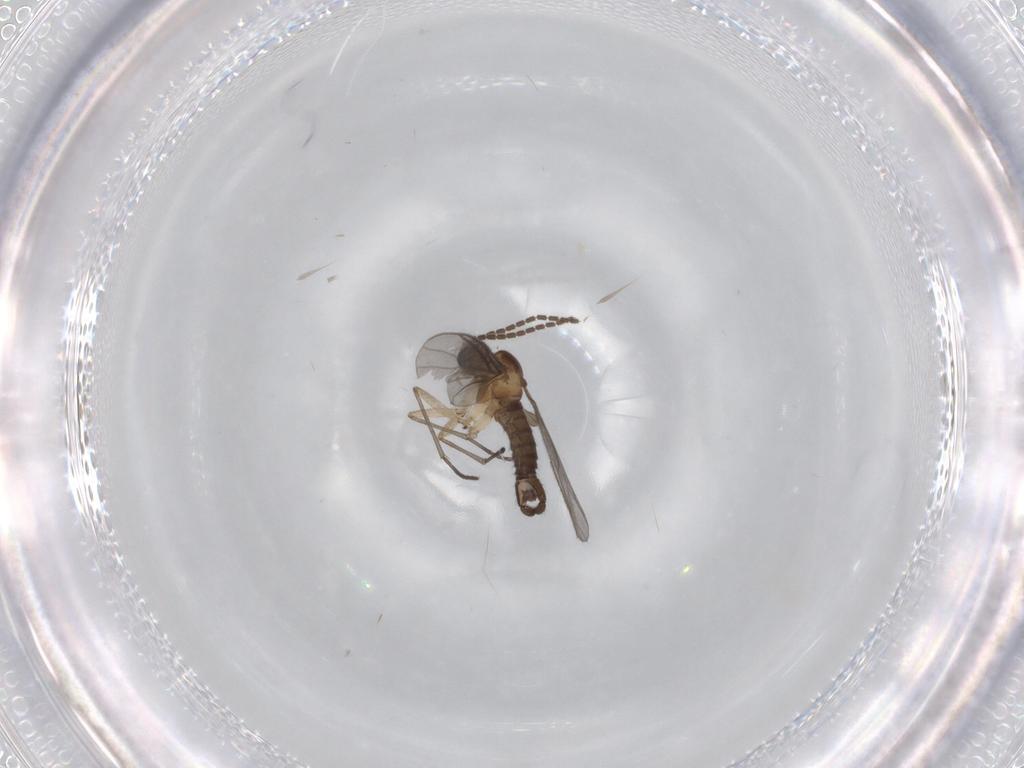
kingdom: Animalia
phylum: Arthropoda
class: Insecta
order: Diptera
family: Sciaridae
